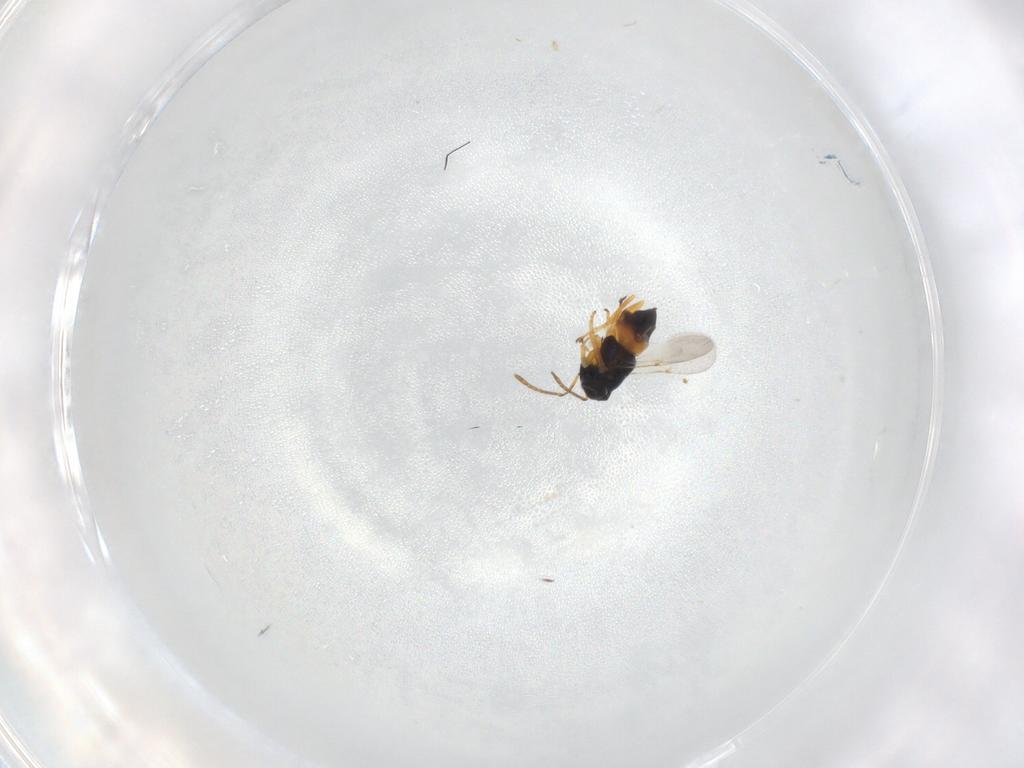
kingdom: Animalia
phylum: Arthropoda
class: Insecta
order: Hymenoptera
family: Encyrtidae
